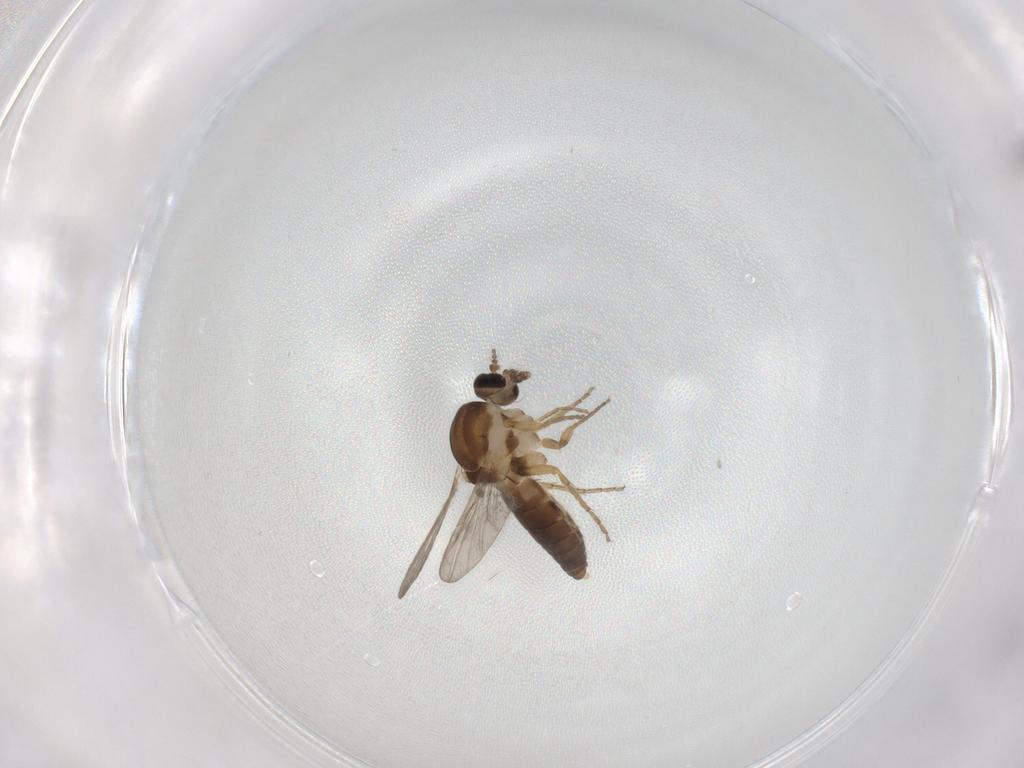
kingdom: Animalia
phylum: Arthropoda
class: Insecta
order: Diptera
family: Ceratopogonidae
